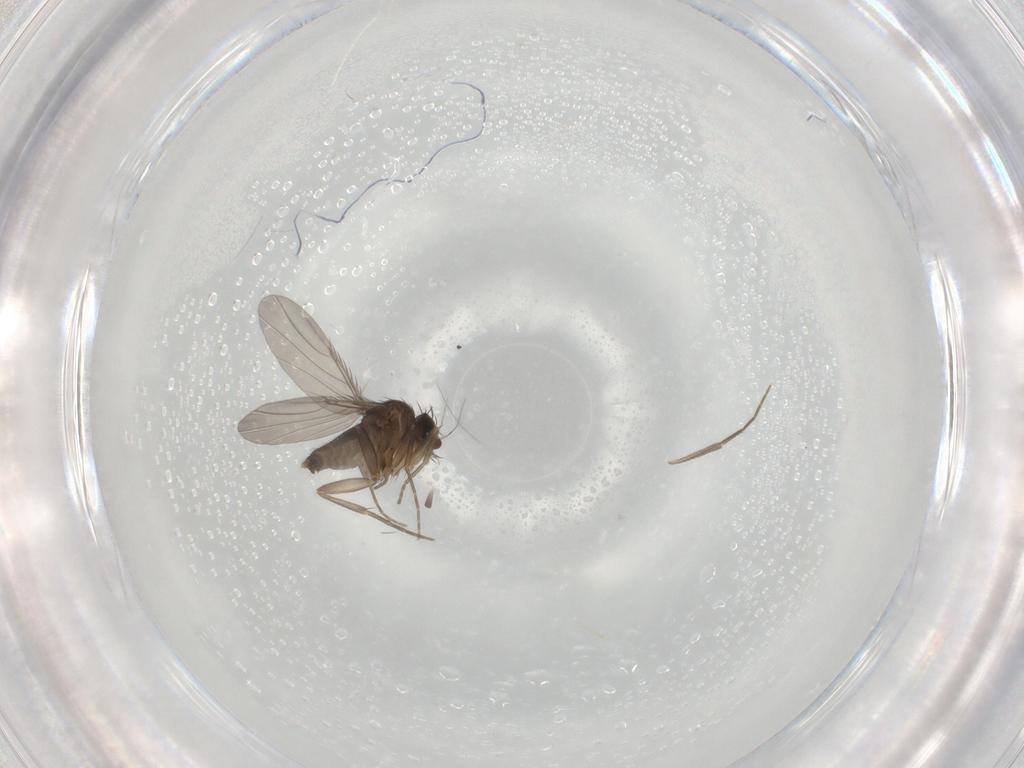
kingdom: Animalia
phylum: Arthropoda
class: Insecta
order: Diptera
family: Phoridae
